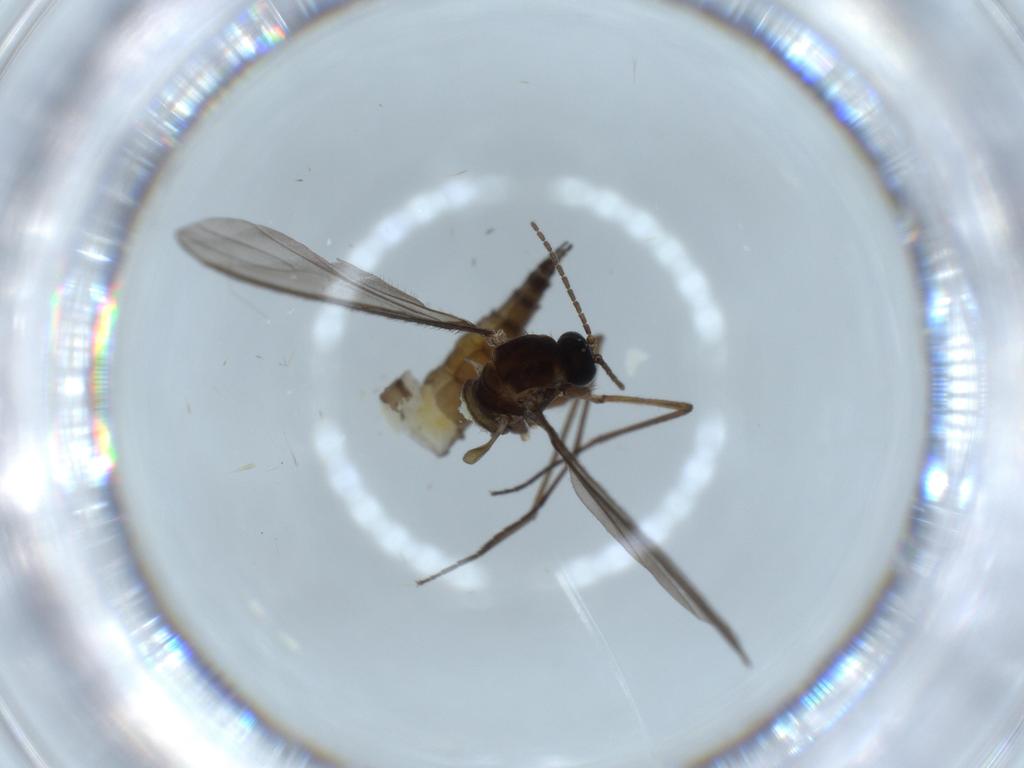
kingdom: Animalia
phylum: Arthropoda
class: Insecta
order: Diptera
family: Sciaridae
